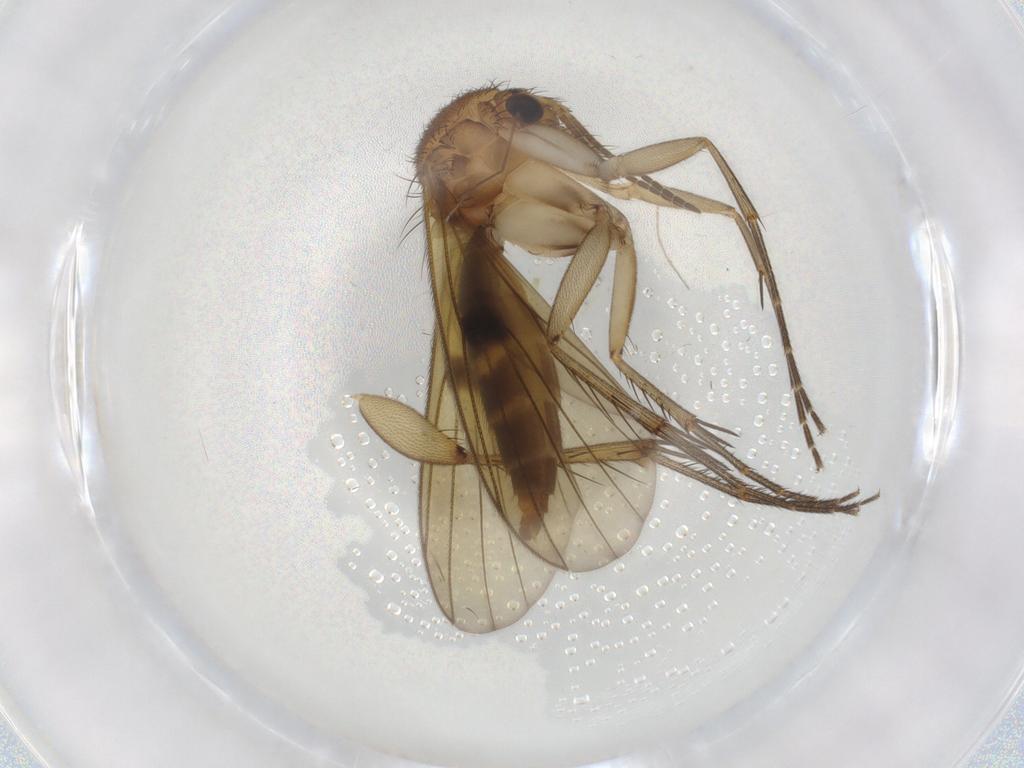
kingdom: Animalia
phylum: Arthropoda
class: Insecta
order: Diptera
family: Mycetophilidae
